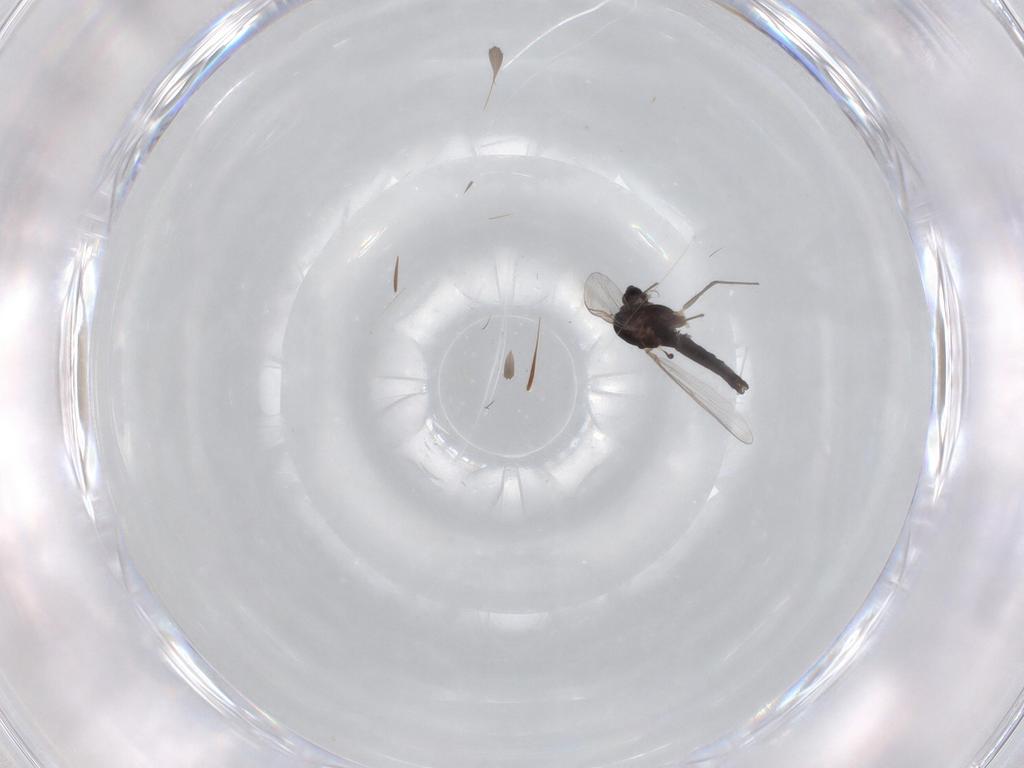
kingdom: Animalia
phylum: Arthropoda
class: Insecta
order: Diptera
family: Chironomidae
